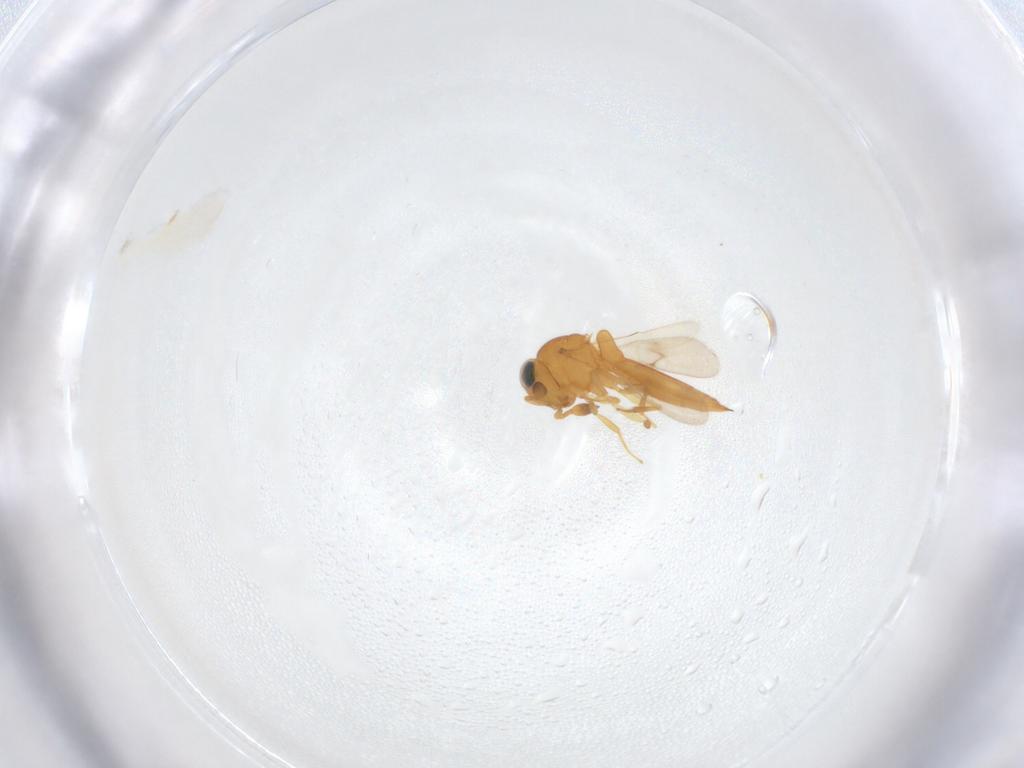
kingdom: Animalia
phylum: Arthropoda
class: Insecta
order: Hymenoptera
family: Scelionidae
